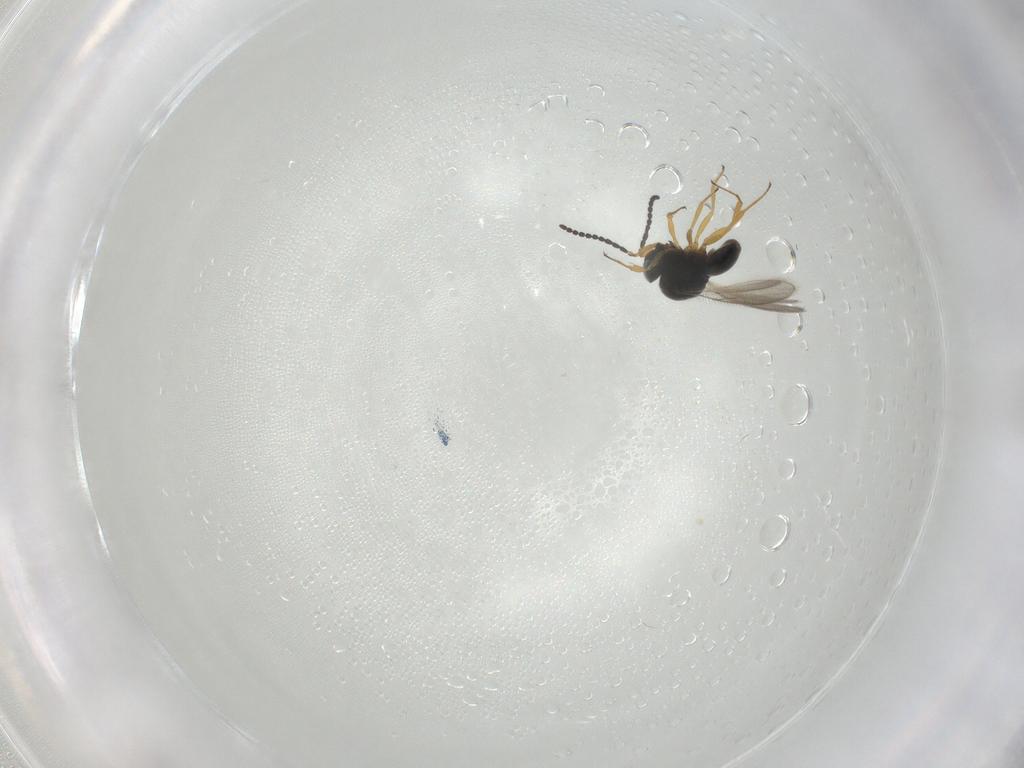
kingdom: Animalia
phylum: Arthropoda
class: Insecta
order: Hymenoptera
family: Scelionidae
